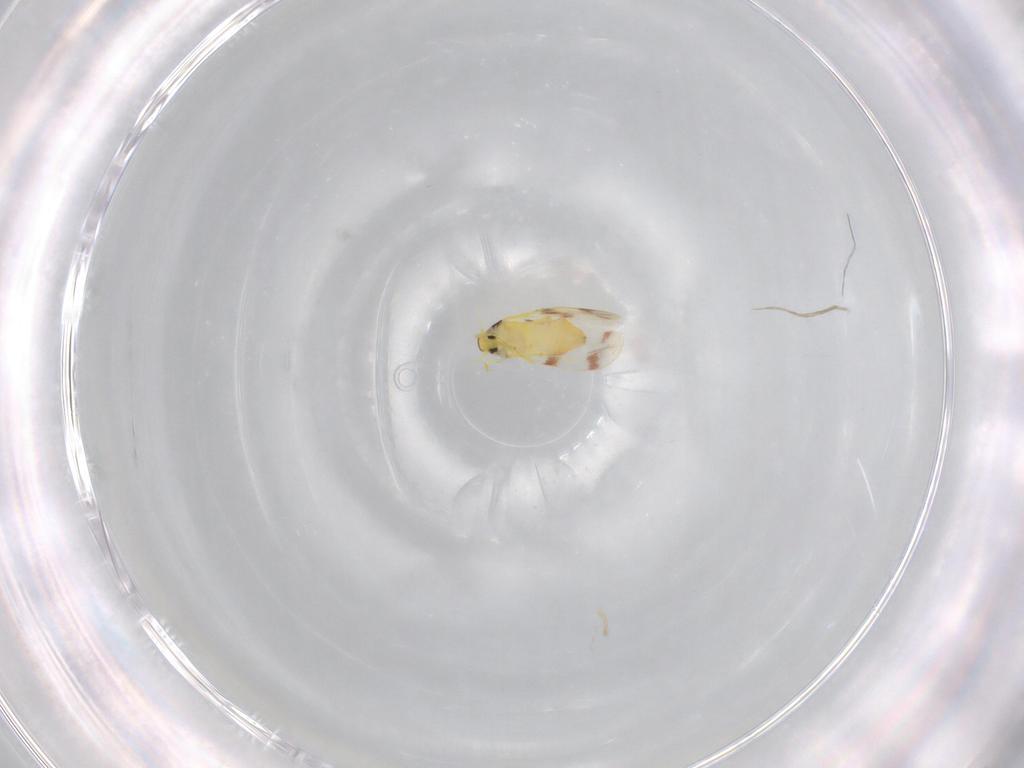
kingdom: Animalia
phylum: Arthropoda
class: Insecta
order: Hemiptera
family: Aleyrodidae
